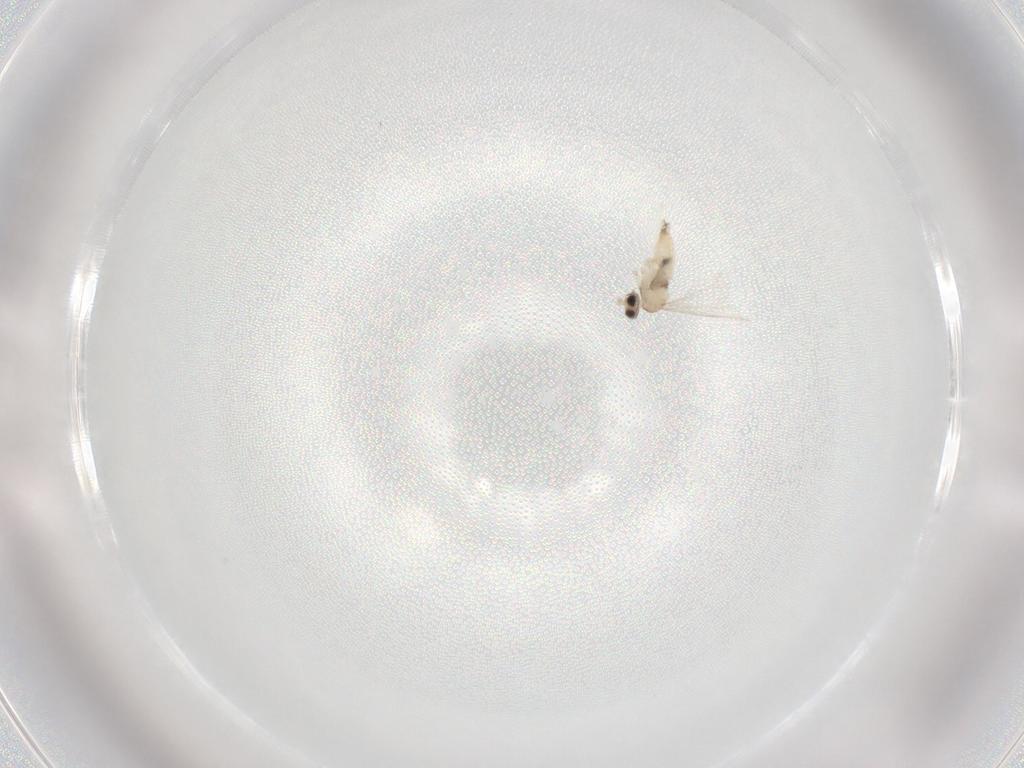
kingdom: Animalia
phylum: Arthropoda
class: Insecta
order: Diptera
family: Cecidomyiidae
